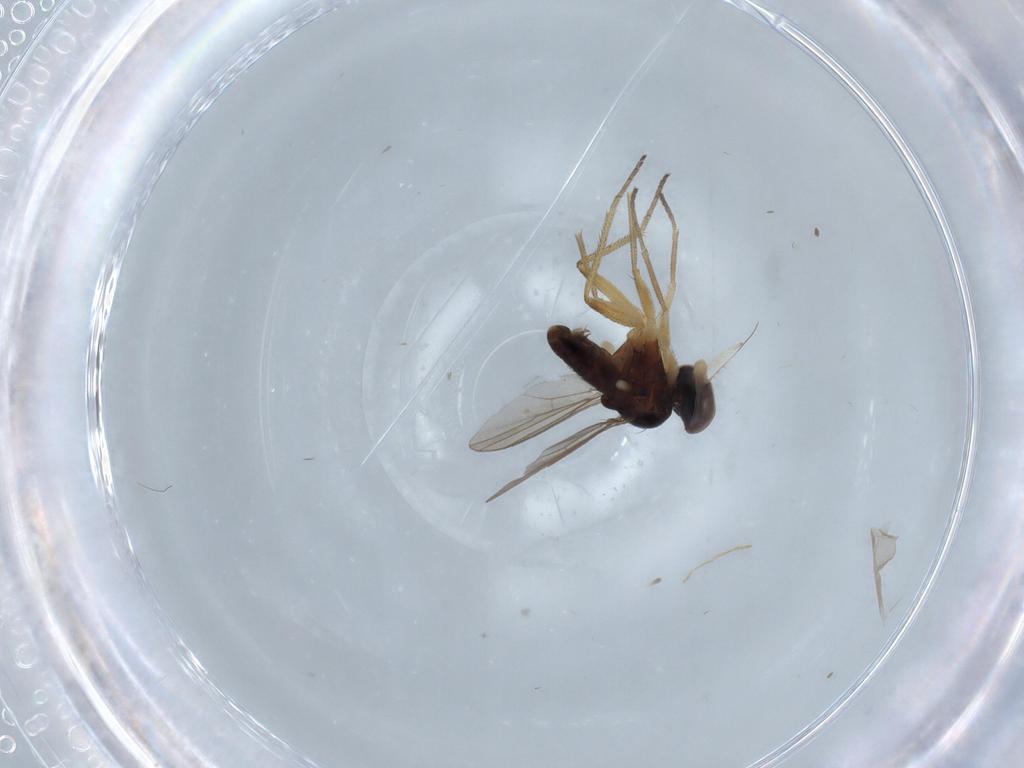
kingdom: Animalia
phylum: Arthropoda
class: Insecta
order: Diptera
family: Dolichopodidae
